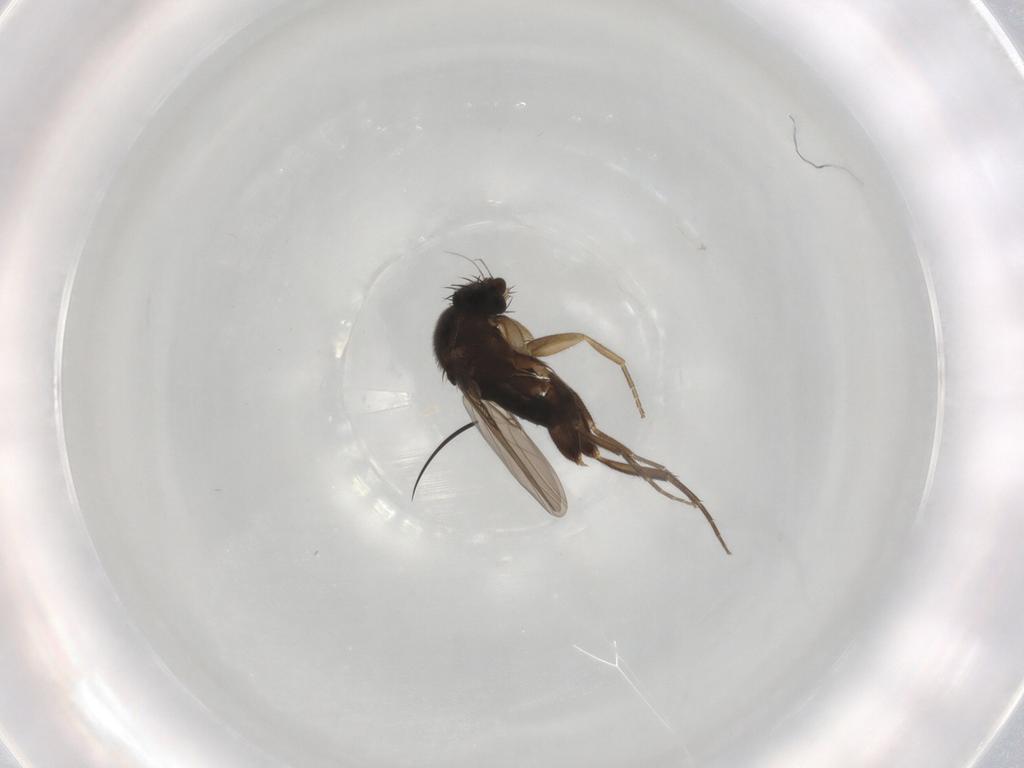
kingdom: Animalia
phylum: Arthropoda
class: Insecta
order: Diptera
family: Phoridae
